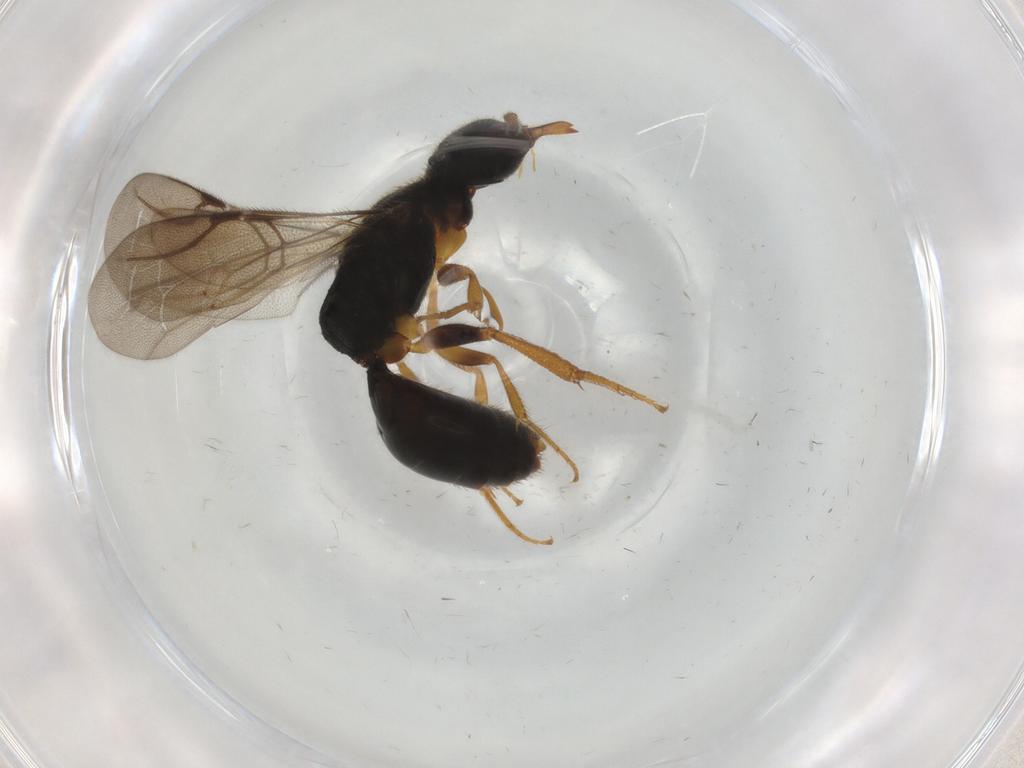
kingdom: Animalia
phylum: Arthropoda
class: Insecta
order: Hymenoptera
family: Bethylidae
